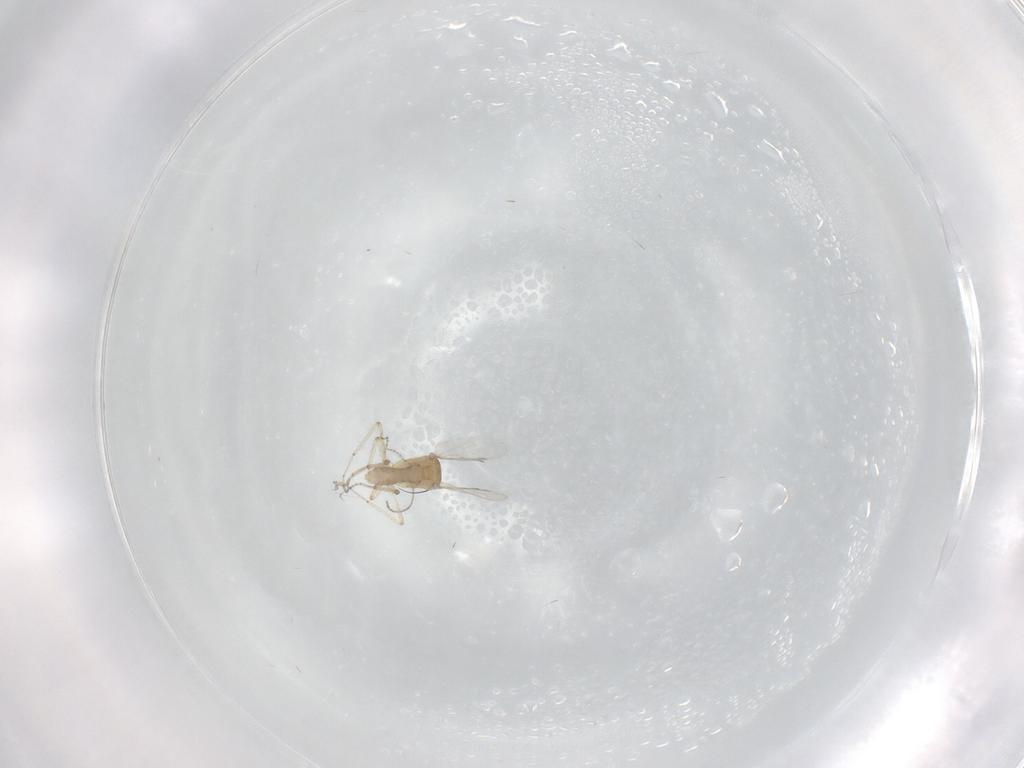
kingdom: Animalia
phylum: Arthropoda
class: Insecta
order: Diptera
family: Ceratopogonidae
